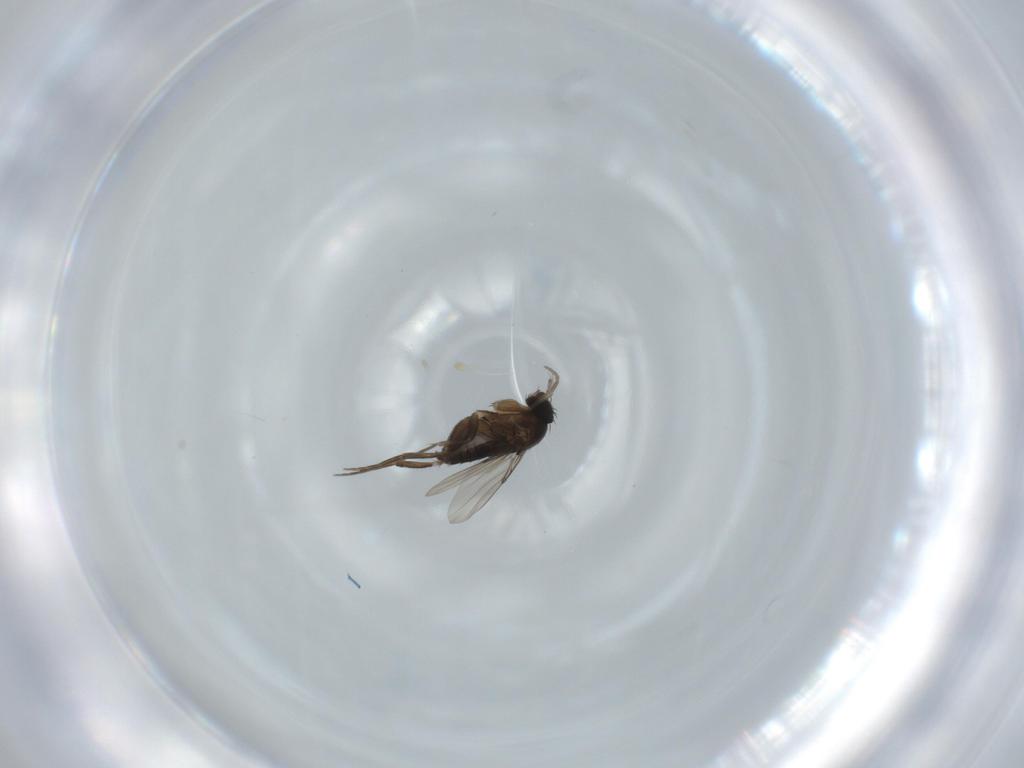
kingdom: Animalia
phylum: Arthropoda
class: Insecta
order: Diptera
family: Phoridae
